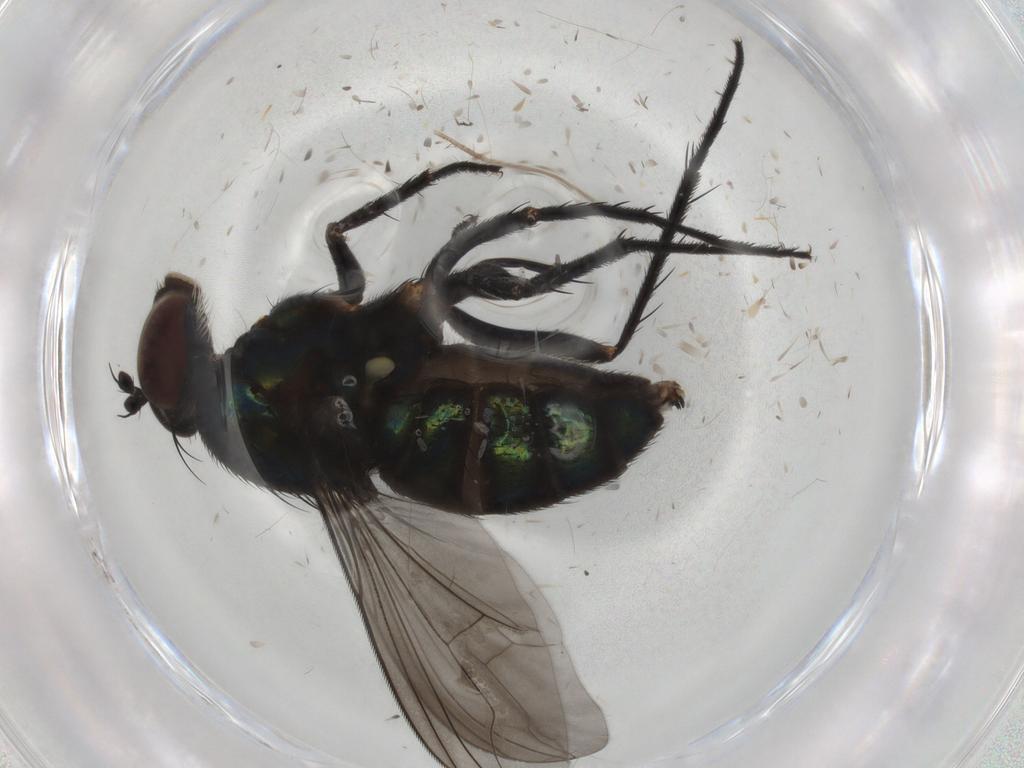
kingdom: Animalia
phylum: Arthropoda
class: Insecta
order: Diptera
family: Dolichopodidae
